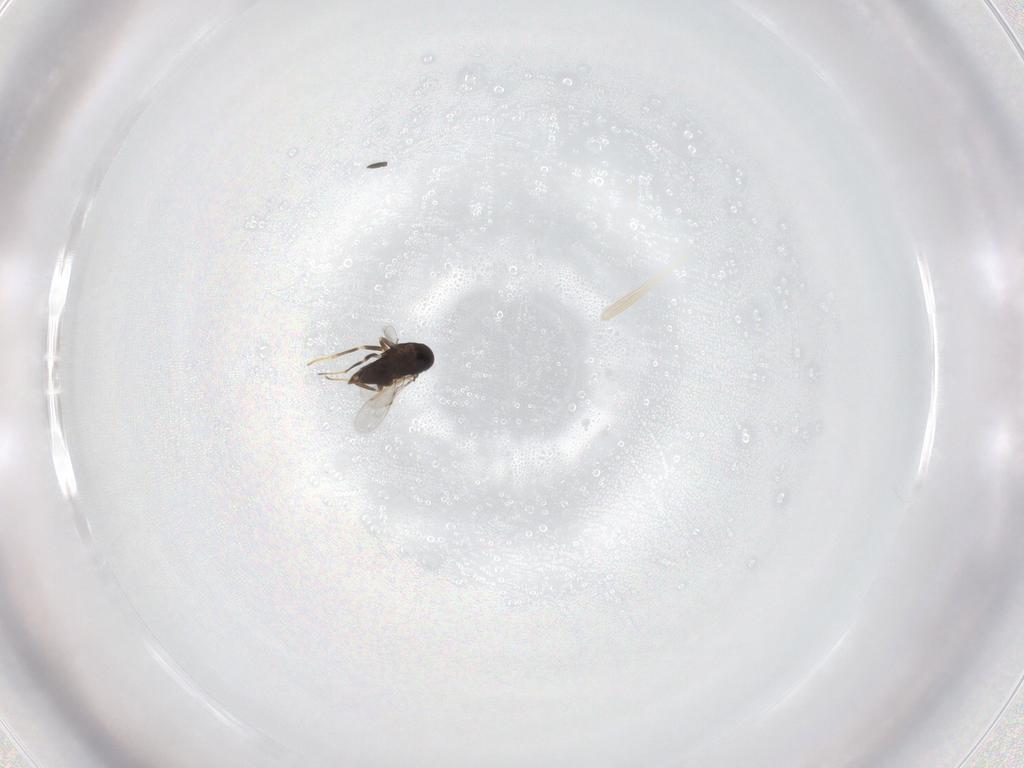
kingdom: Animalia
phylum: Arthropoda
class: Insecta
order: Hymenoptera
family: Encyrtidae
